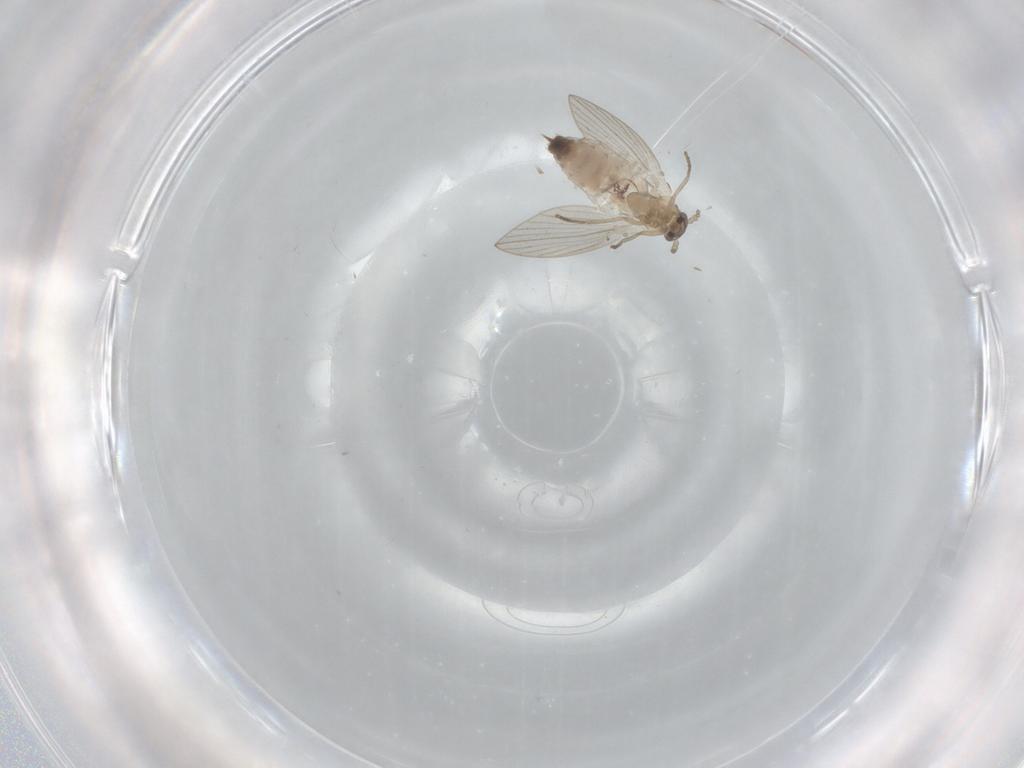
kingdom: Animalia
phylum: Arthropoda
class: Insecta
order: Diptera
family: Psychodidae
